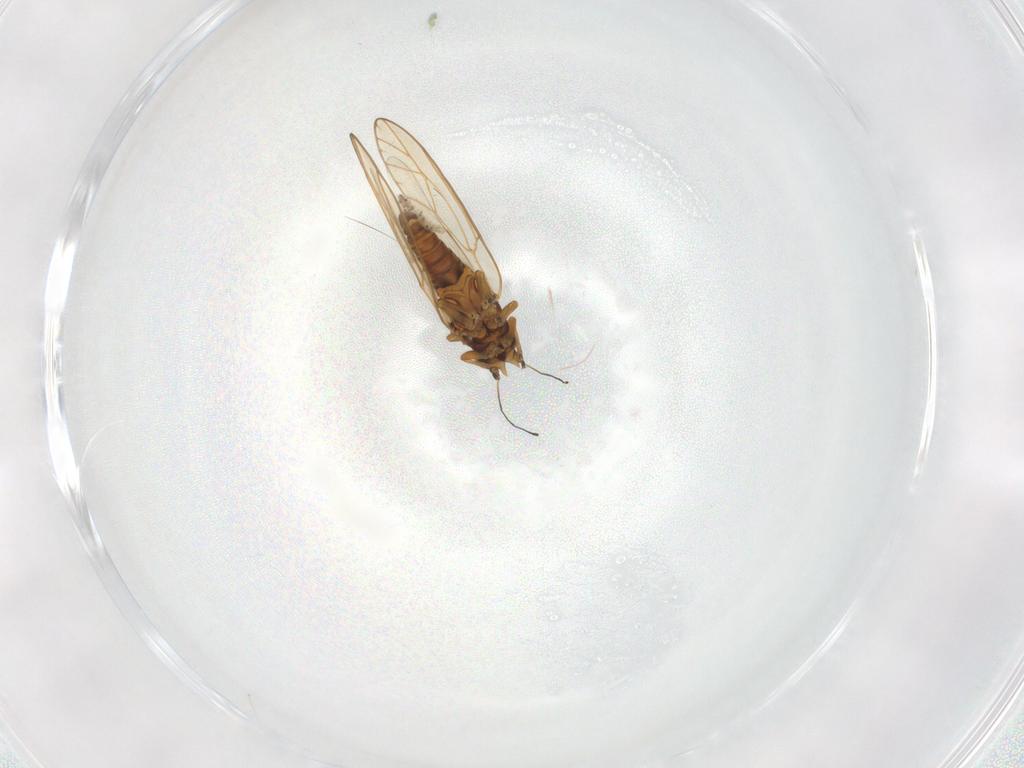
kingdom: Animalia
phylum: Arthropoda
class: Insecta
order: Hemiptera
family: Triozidae
